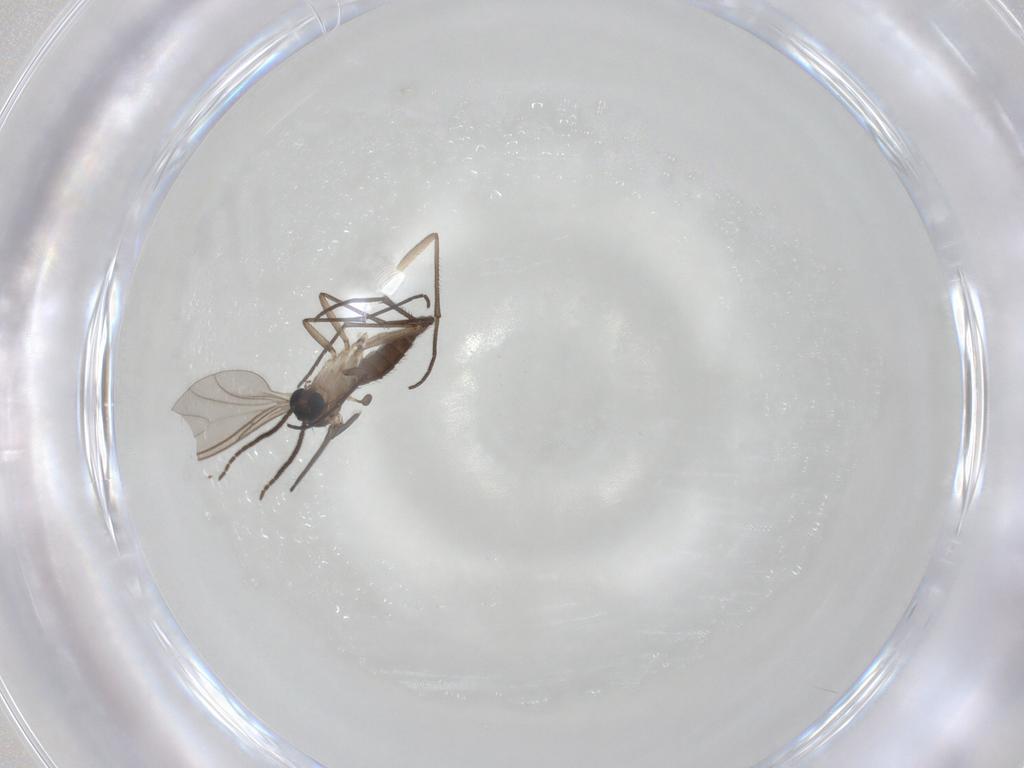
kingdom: Animalia
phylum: Arthropoda
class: Insecta
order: Diptera
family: Sciaridae
